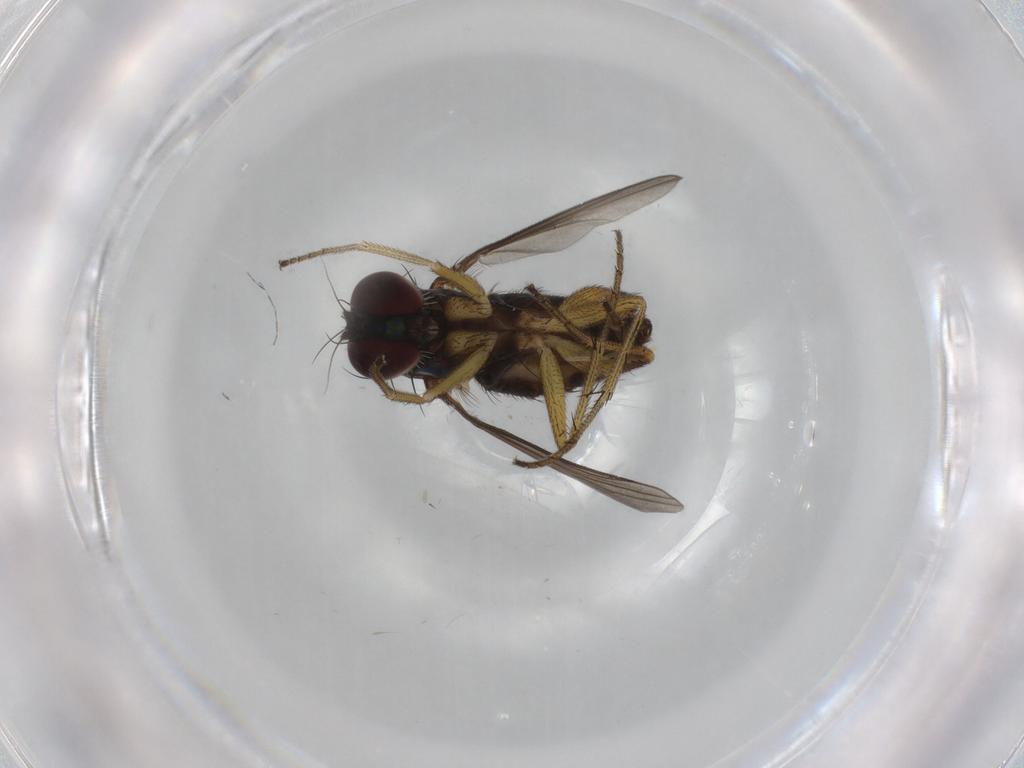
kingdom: Animalia
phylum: Arthropoda
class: Insecta
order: Diptera
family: Dolichopodidae
